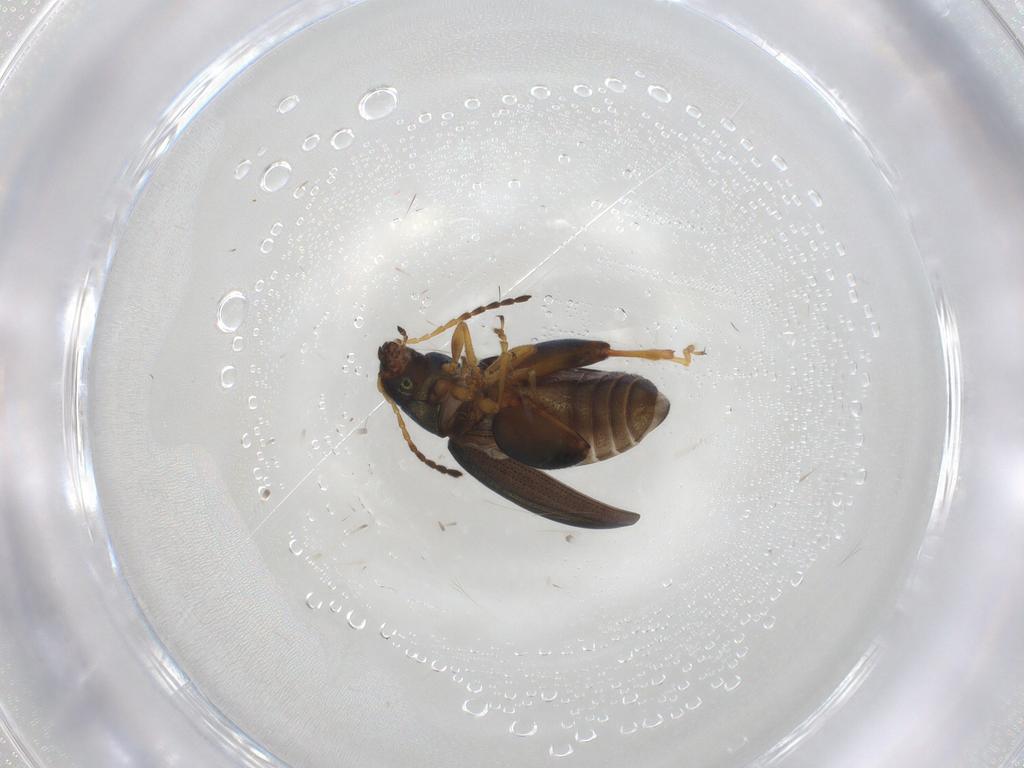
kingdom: Animalia
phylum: Arthropoda
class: Insecta
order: Coleoptera
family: Chrysomelidae
